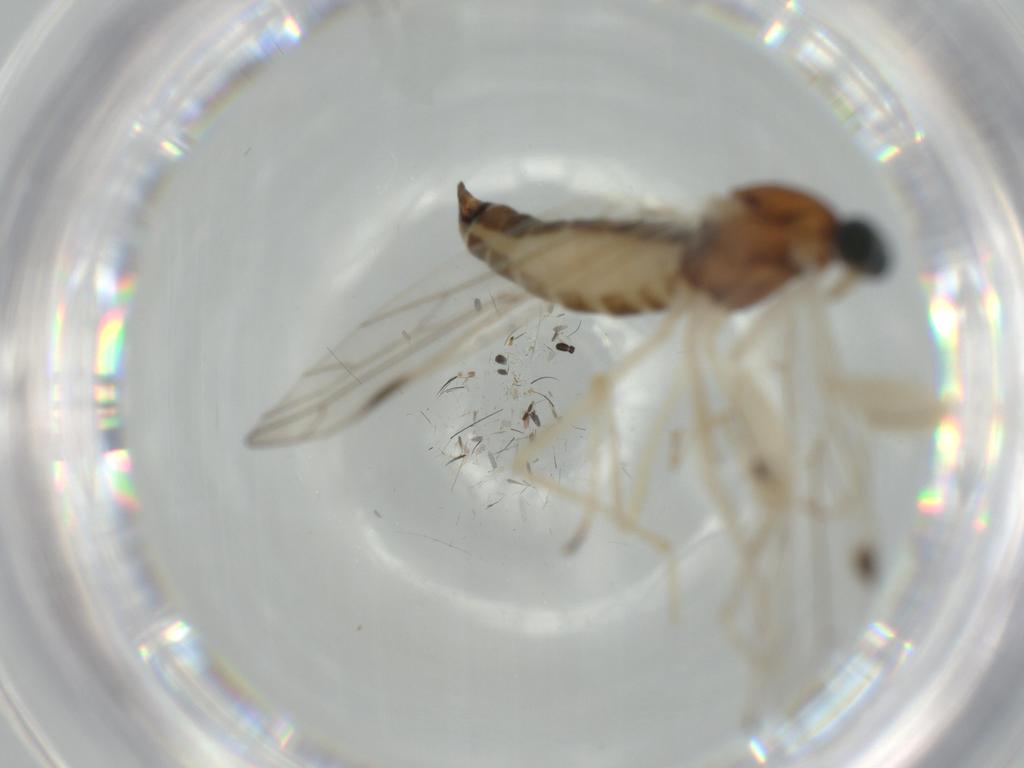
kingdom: Animalia
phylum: Arthropoda
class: Insecta
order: Diptera
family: Empididae
